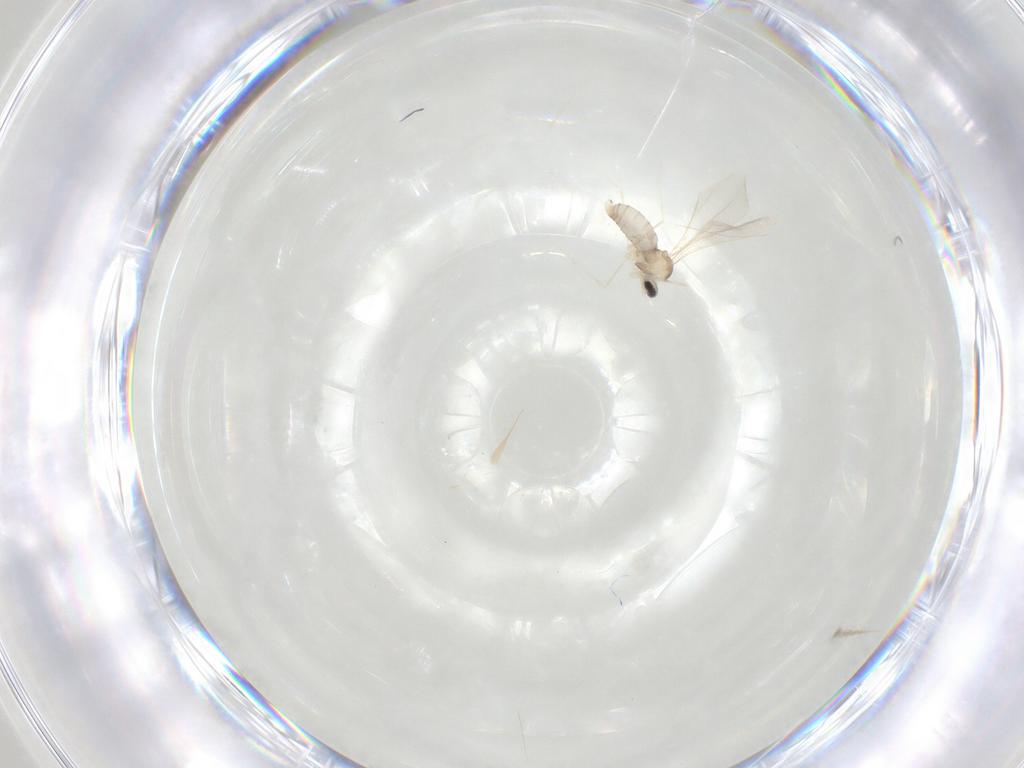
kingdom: Animalia
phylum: Arthropoda
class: Insecta
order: Diptera
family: Cecidomyiidae
